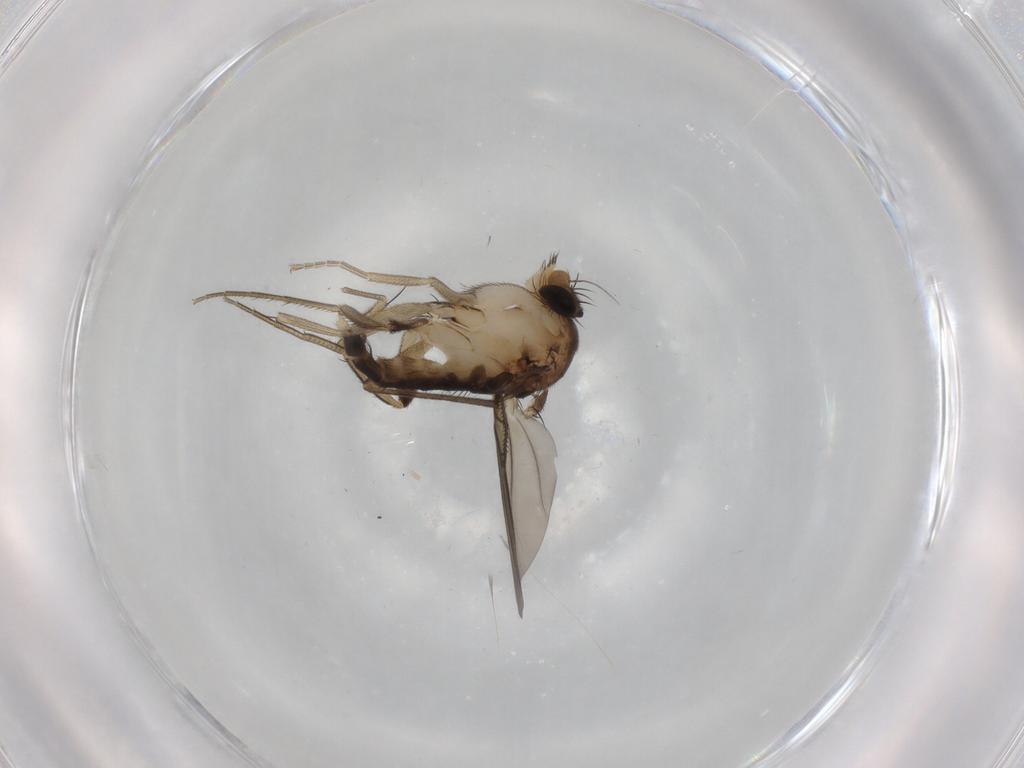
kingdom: Animalia
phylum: Arthropoda
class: Insecta
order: Diptera
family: Phoridae
